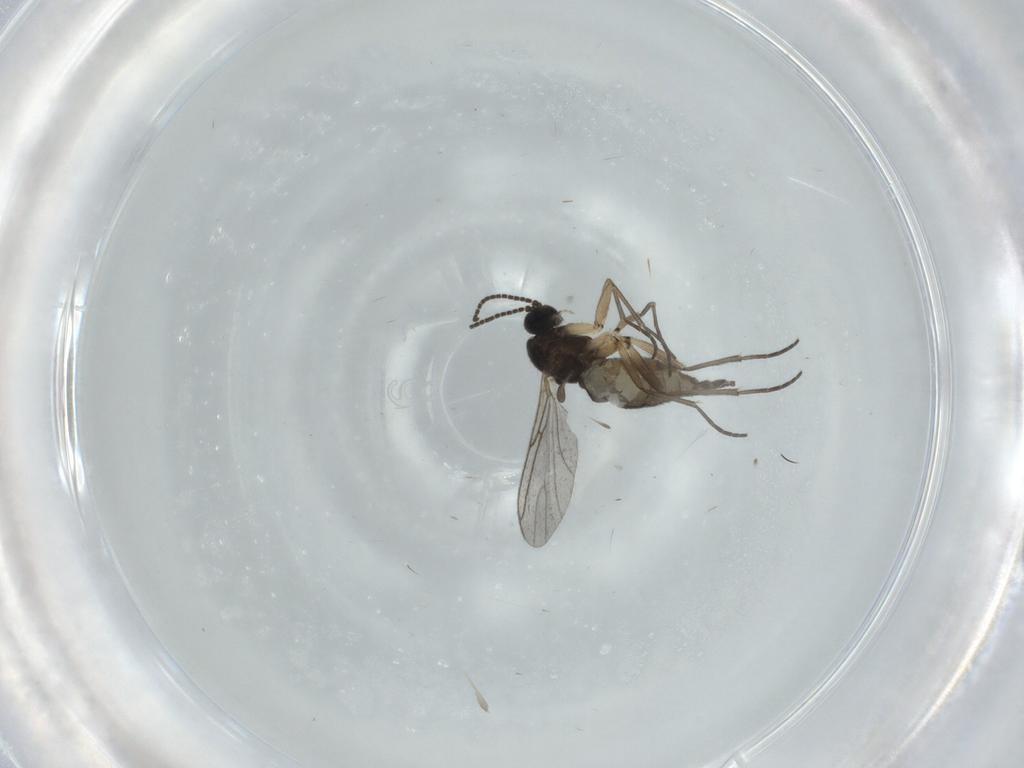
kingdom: Animalia
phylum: Arthropoda
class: Insecta
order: Diptera
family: Sciaridae
